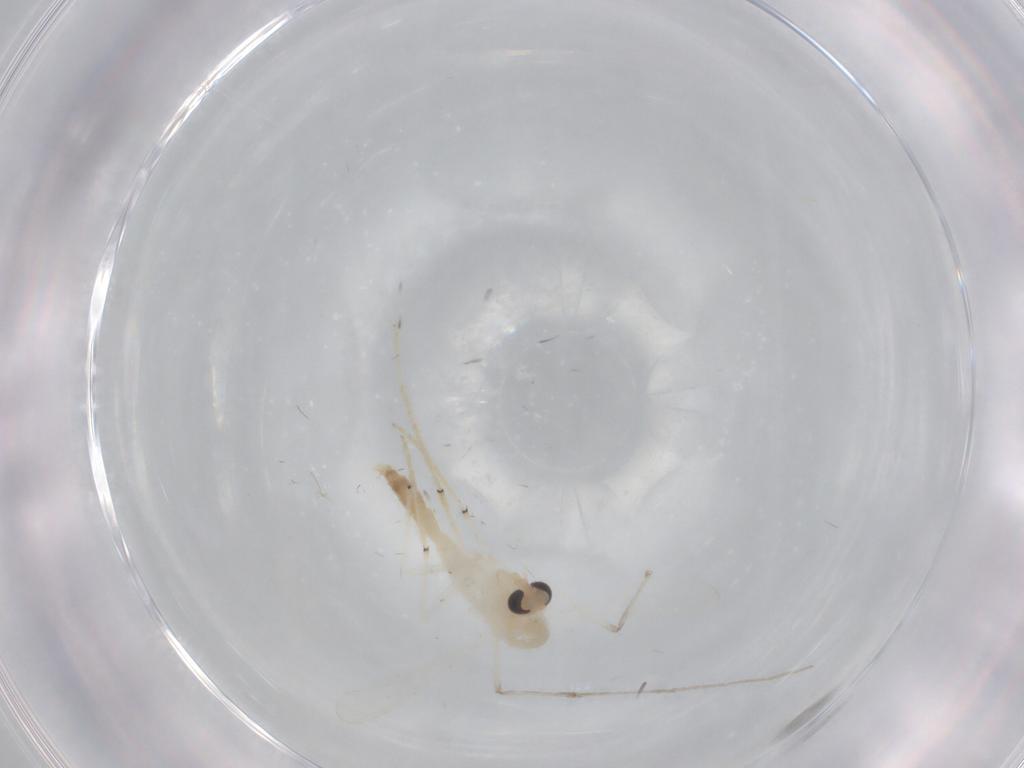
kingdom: Animalia
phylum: Arthropoda
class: Insecta
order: Diptera
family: Chironomidae
